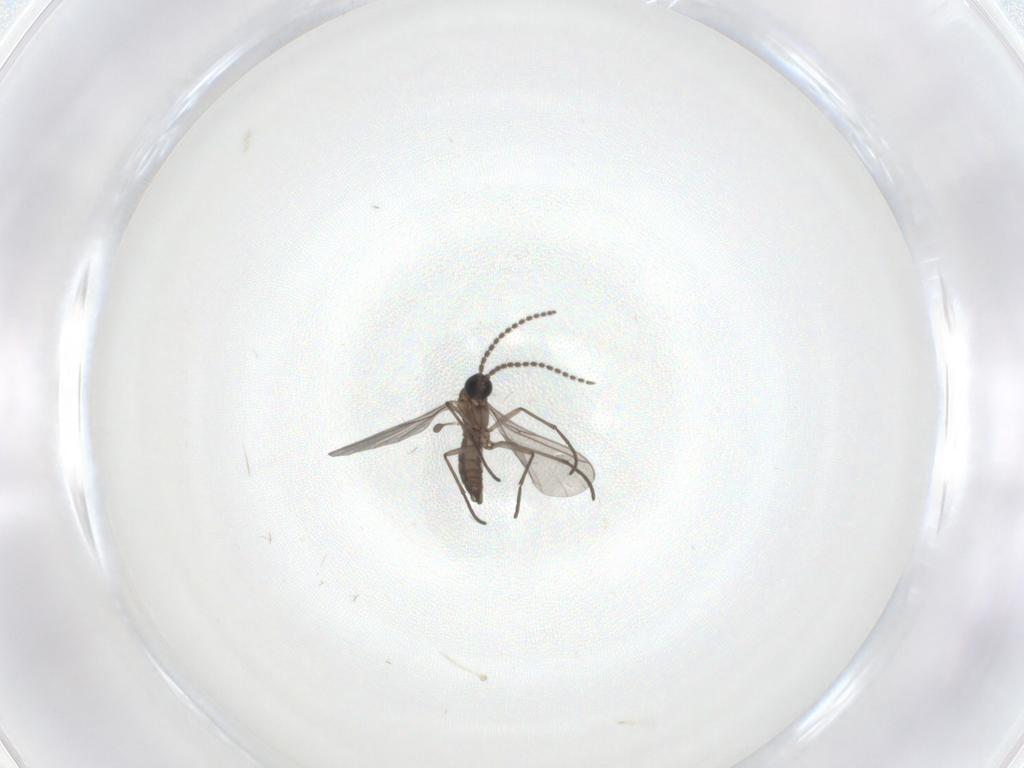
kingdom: Animalia
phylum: Arthropoda
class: Insecta
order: Diptera
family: Sciaridae
